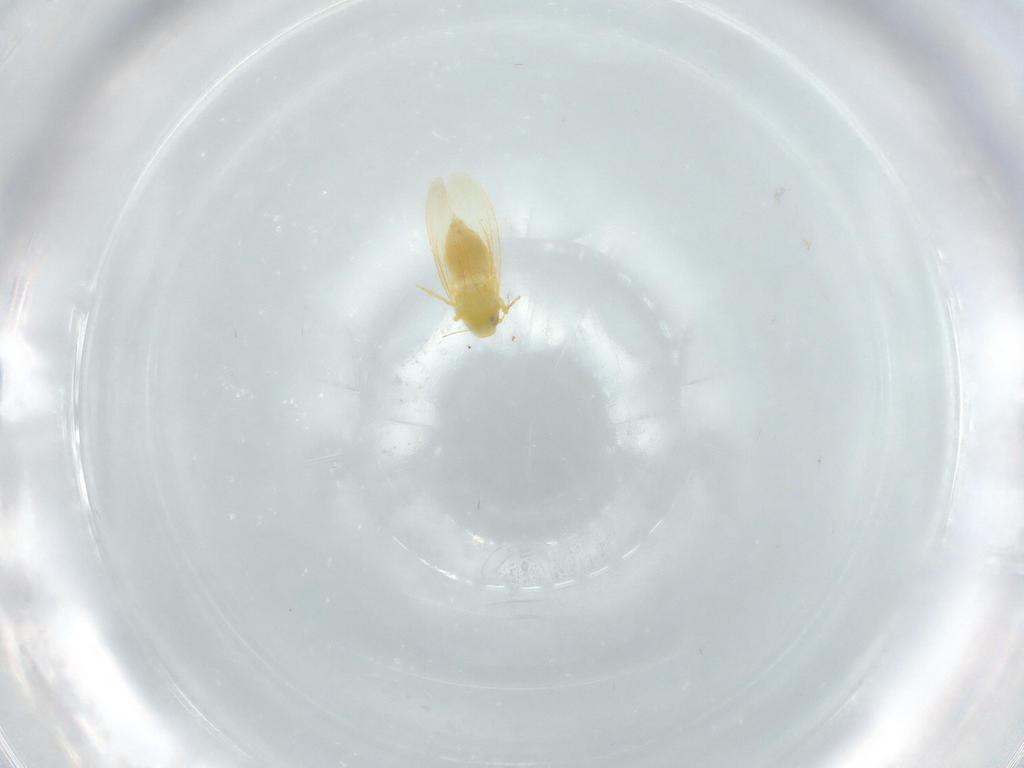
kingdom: Animalia
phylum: Arthropoda
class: Insecta
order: Hemiptera
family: Aleyrodidae
